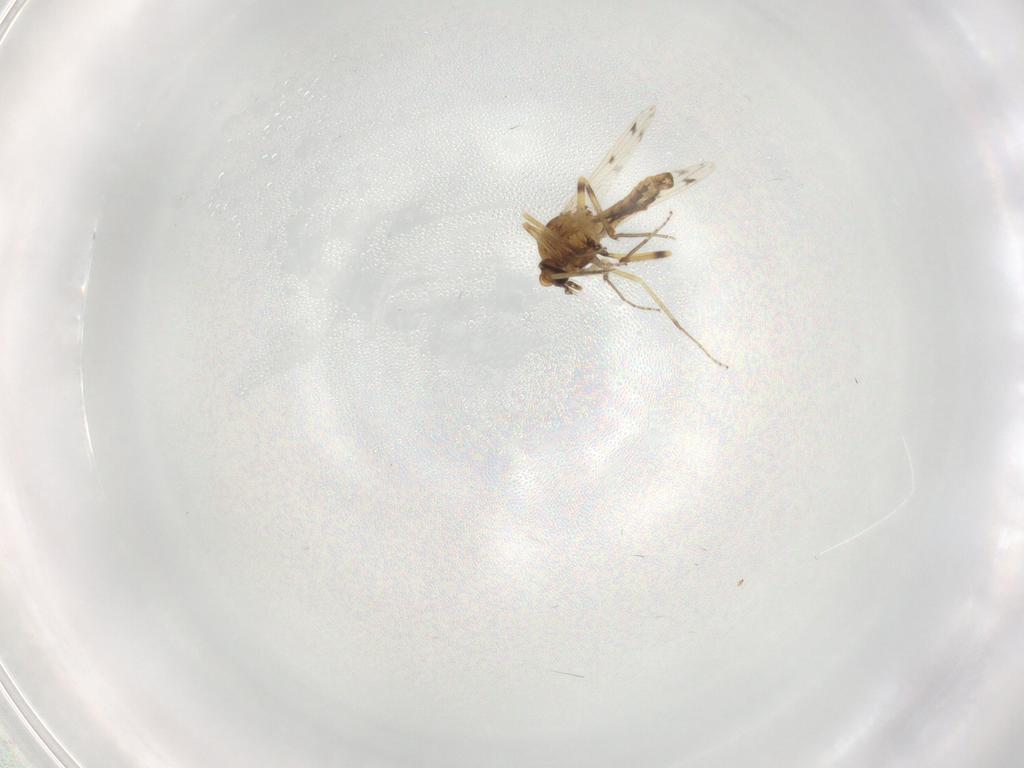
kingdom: Animalia
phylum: Arthropoda
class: Insecta
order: Diptera
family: Ceratopogonidae
